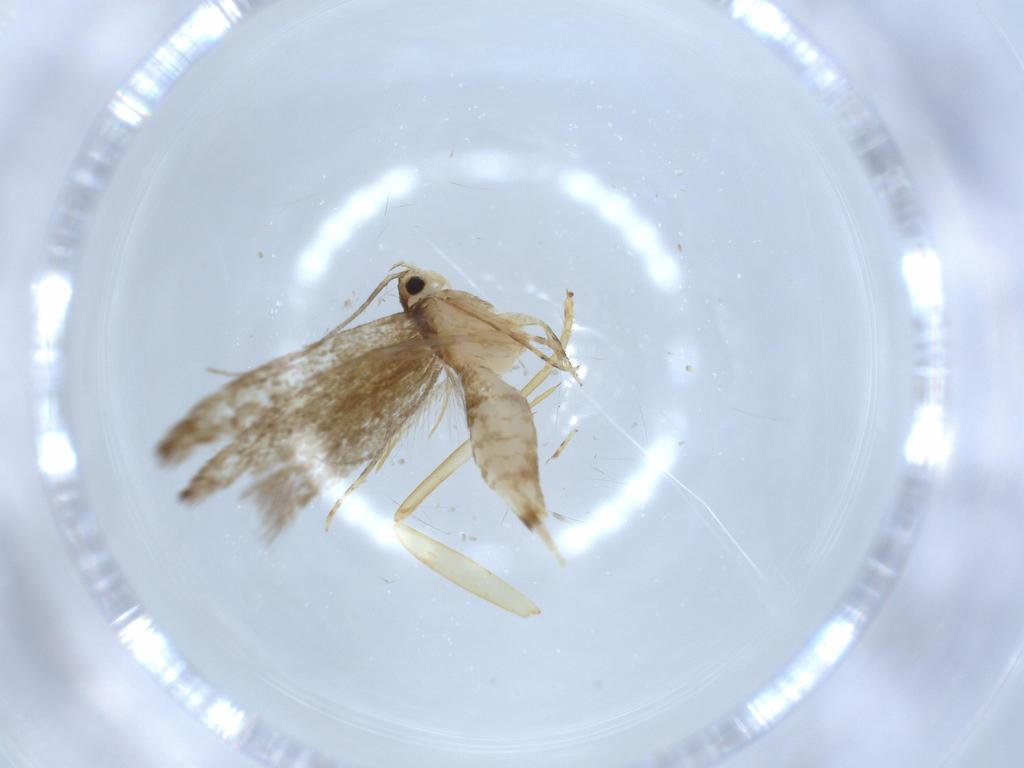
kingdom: Animalia
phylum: Arthropoda
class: Insecta
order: Lepidoptera
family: Tineidae
